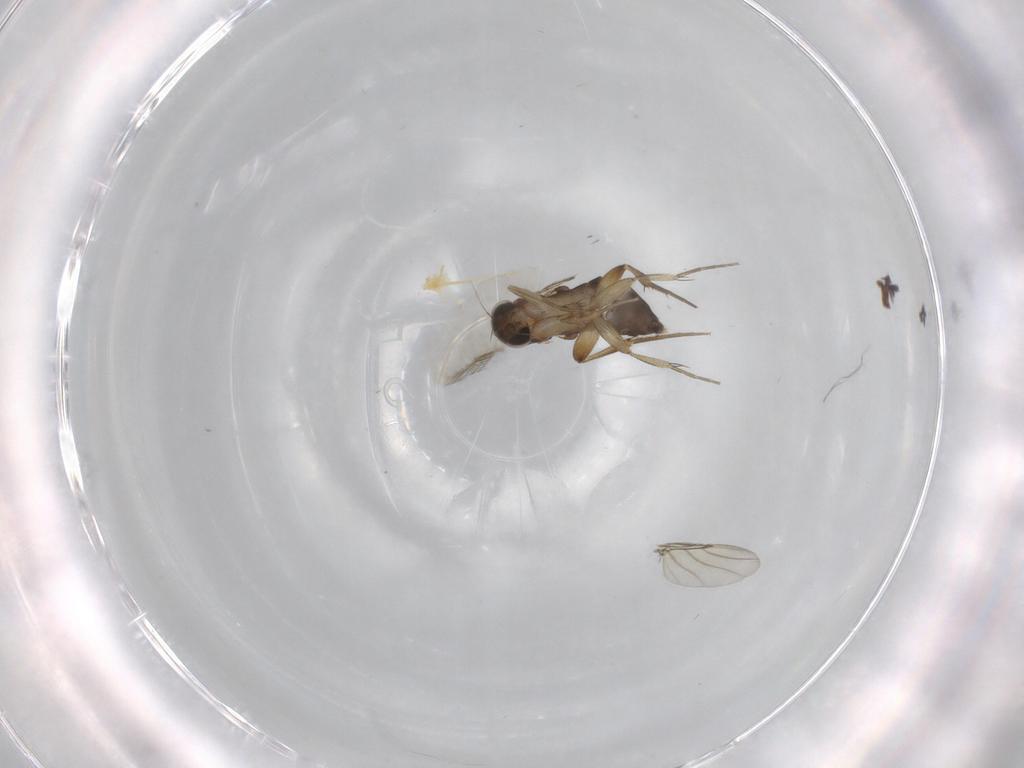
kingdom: Animalia
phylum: Arthropoda
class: Insecta
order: Diptera
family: Phoridae
